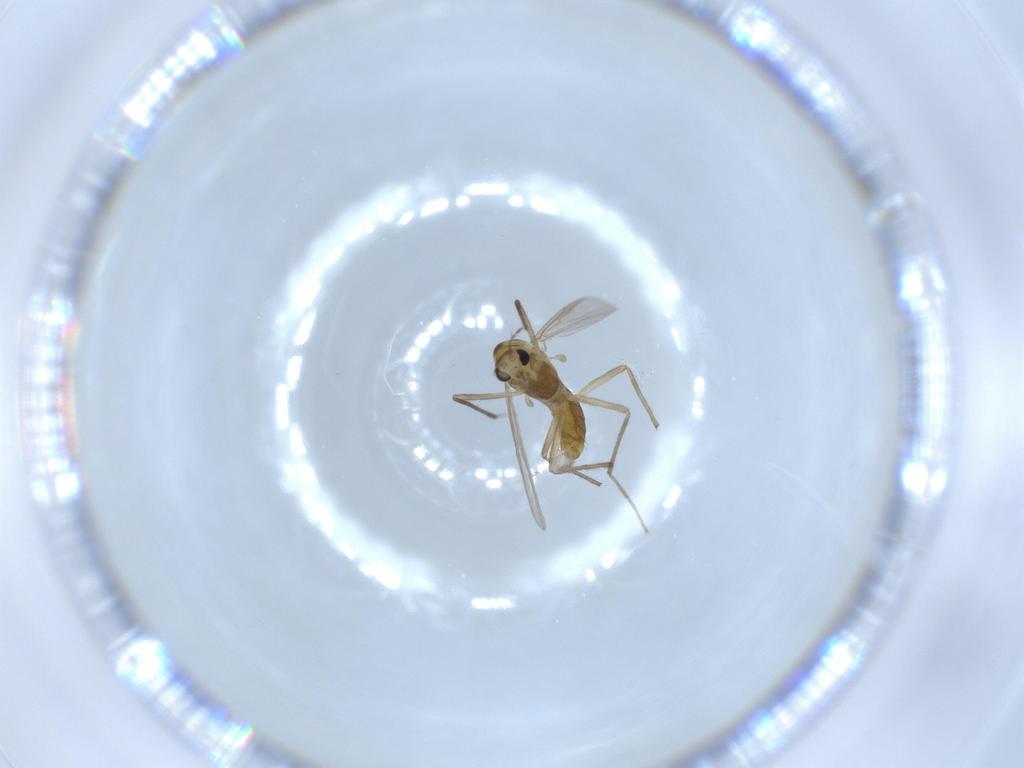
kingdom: Animalia
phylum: Arthropoda
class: Insecta
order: Diptera
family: Chironomidae
